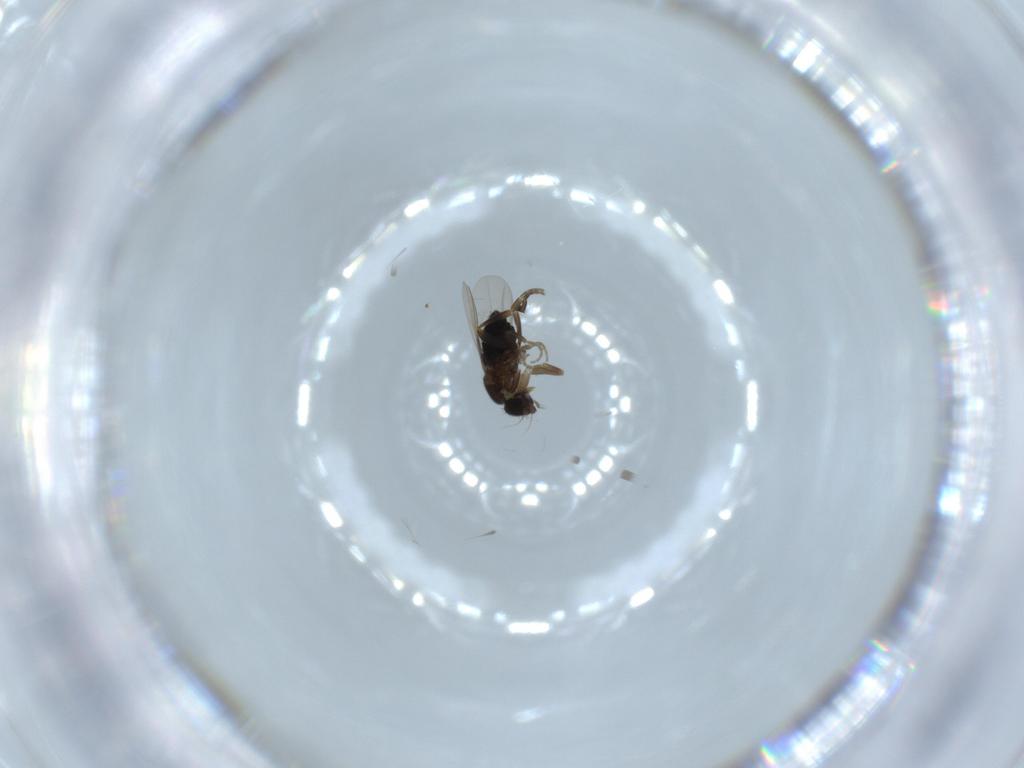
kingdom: Animalia
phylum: Arthropoda
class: Insecta
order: Diptera
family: Phoridae
